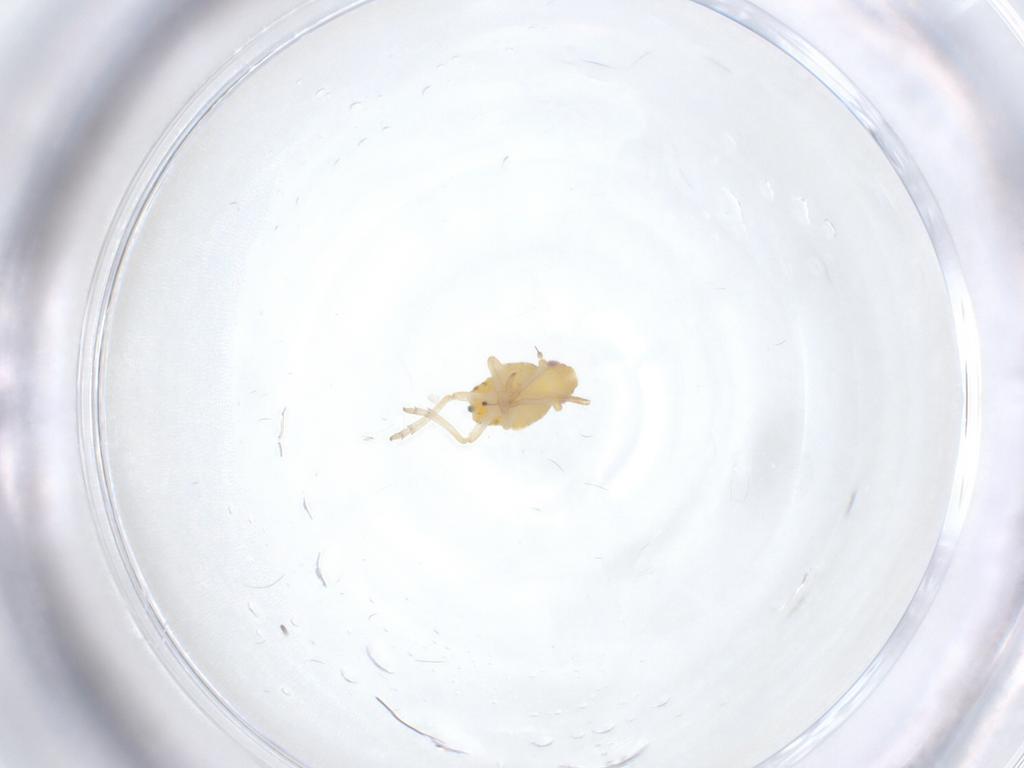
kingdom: Animalia
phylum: Arthropoda
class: Insecta
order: Hemiptera
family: Tropiduchidae
